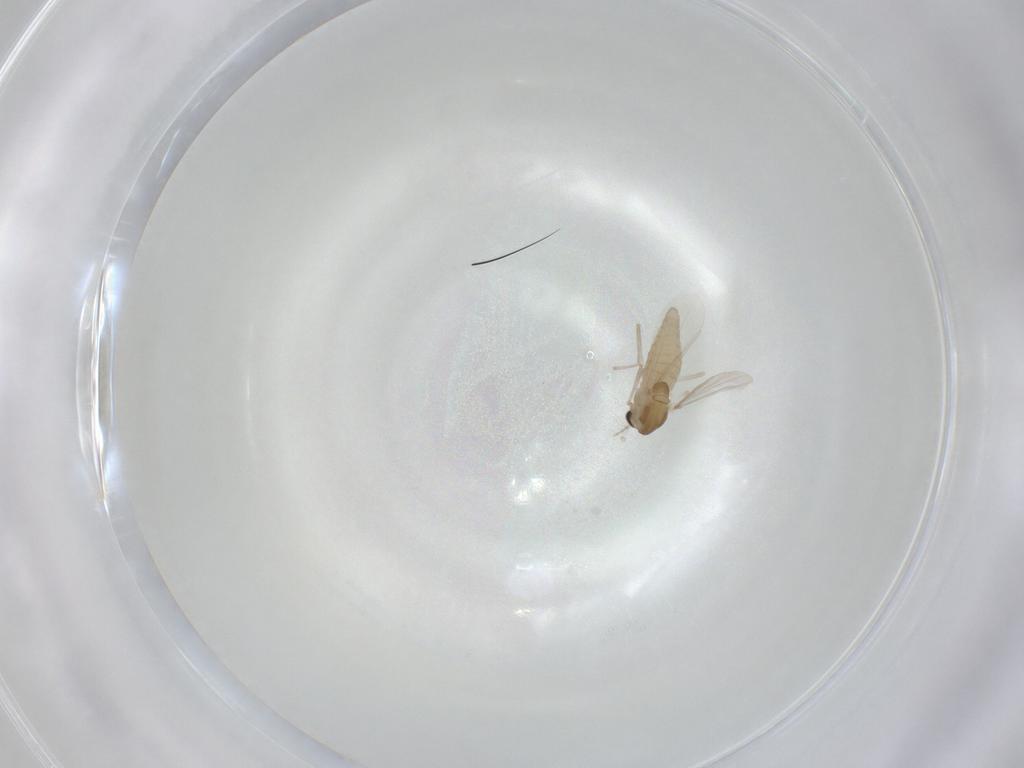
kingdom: Animalia
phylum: Arthropoda
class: Insecta
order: Diptera
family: Chironomidae
